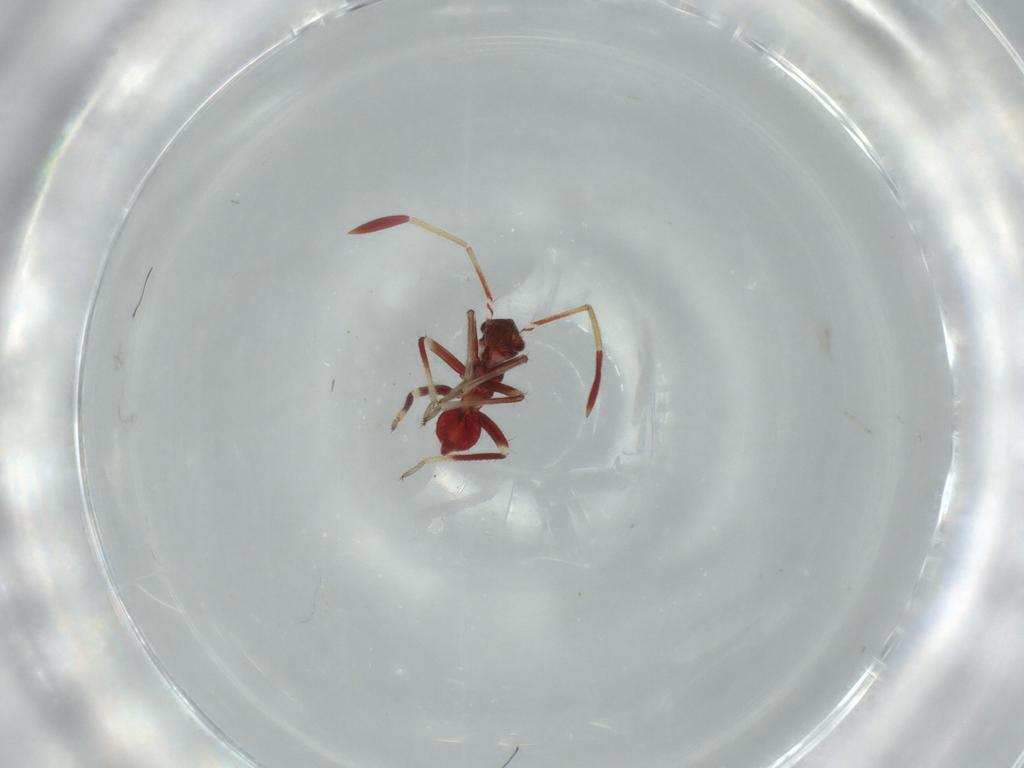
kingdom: Animalia
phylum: Arthropoda
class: Insecta
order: Hemiptera
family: Miridae
